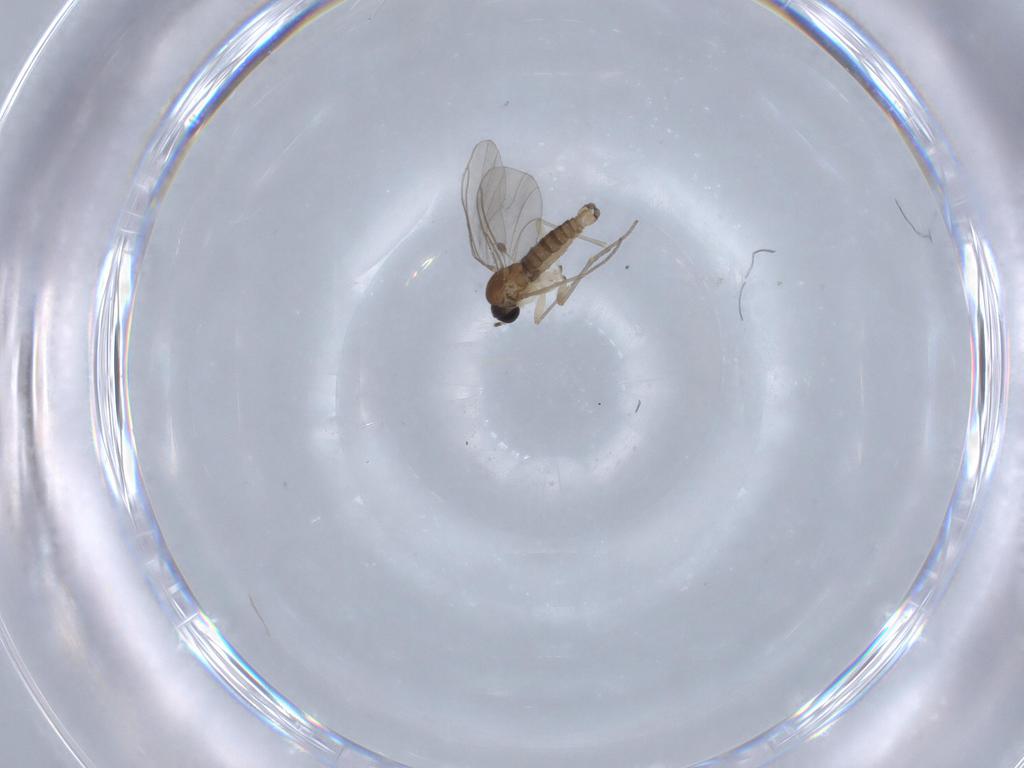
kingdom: Animalia
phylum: Arthropoda
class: Insecta
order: Diptera
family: Sciaridae
